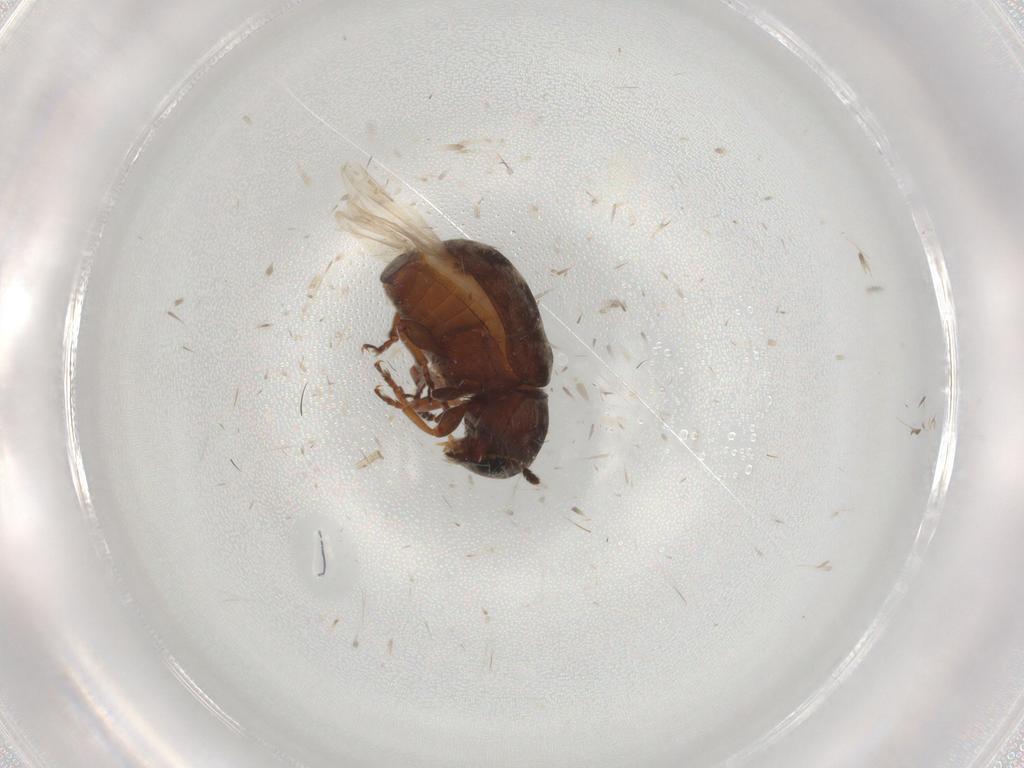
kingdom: Animalia
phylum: Arthropoda
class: Insecta
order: Coleoptera
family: Anthribidae
